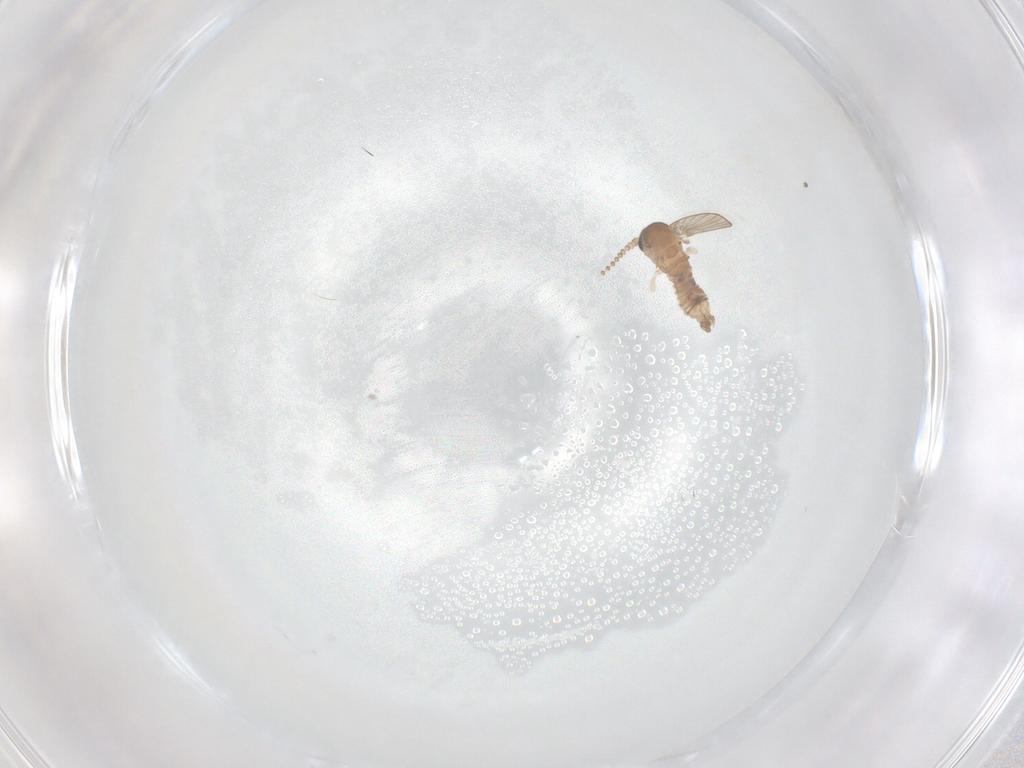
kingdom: Animalia
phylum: Arthropoda
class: Insecta
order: Diptera
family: Psychodidae
